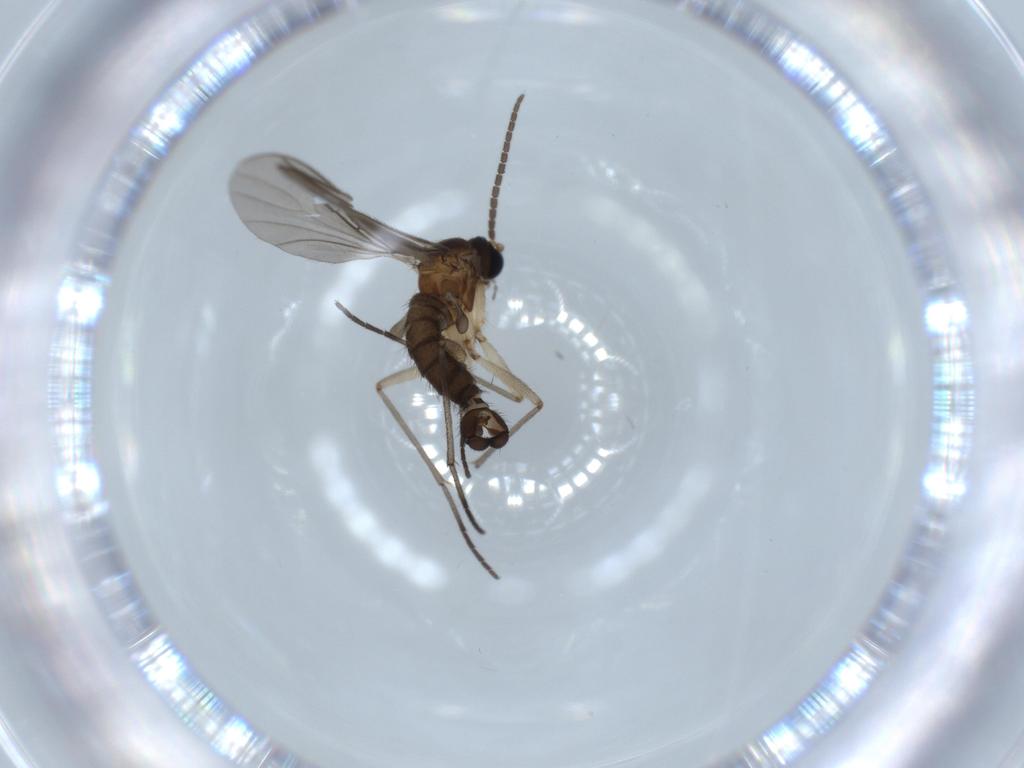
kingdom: Animalia
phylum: Arthropoda
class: Insecta
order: Diptera
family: Sciaridae
